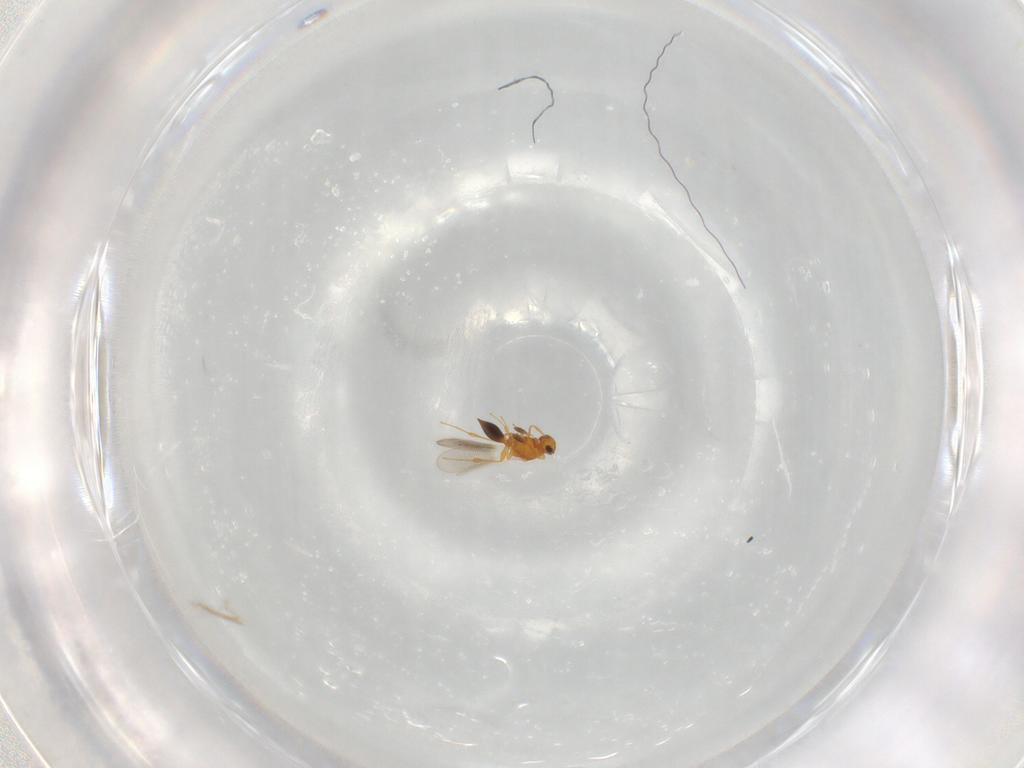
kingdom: Animalia
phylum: Arthropoda
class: Insecta
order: Hymenoptera
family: Platygastridae
